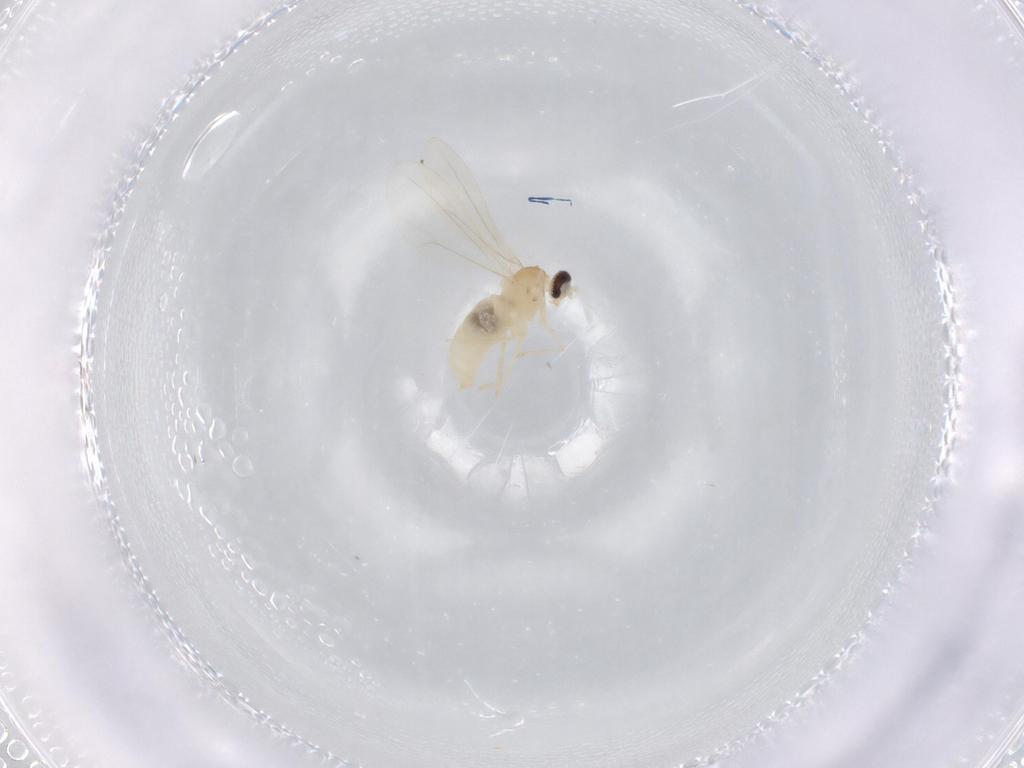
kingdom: Animalia
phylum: Arthropoda
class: Insecta
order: Diptera
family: Cecidomyiidae
